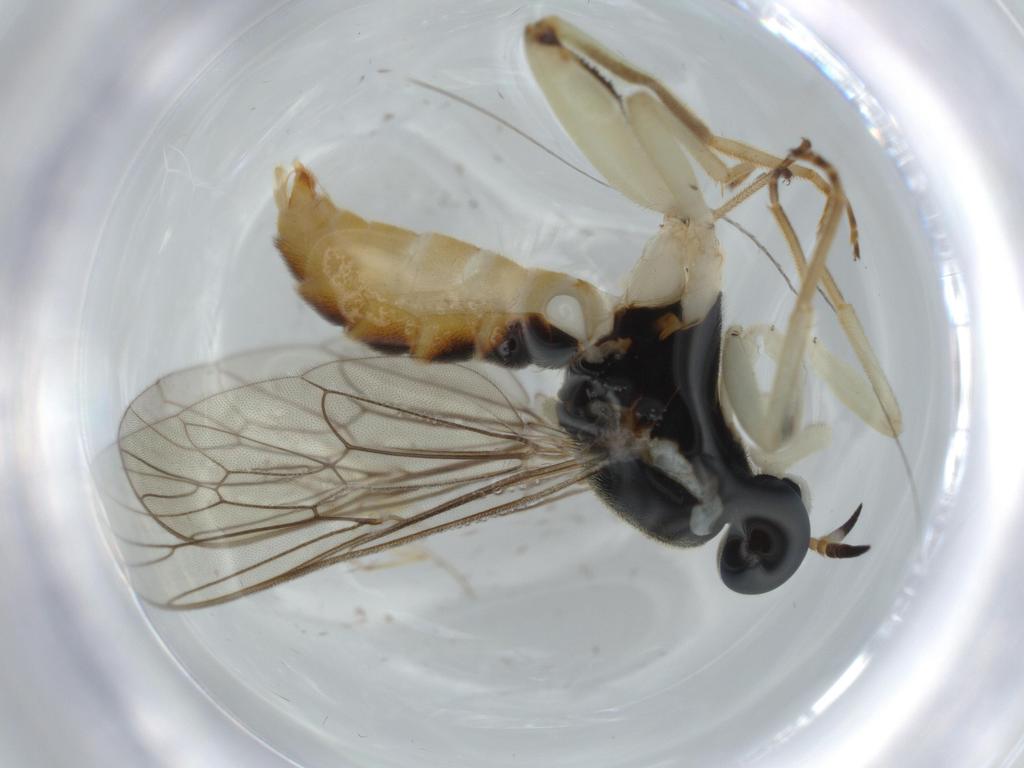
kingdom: Animalia
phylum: Arthropoda
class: Insecta
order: Diptera
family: Xylomyidae
